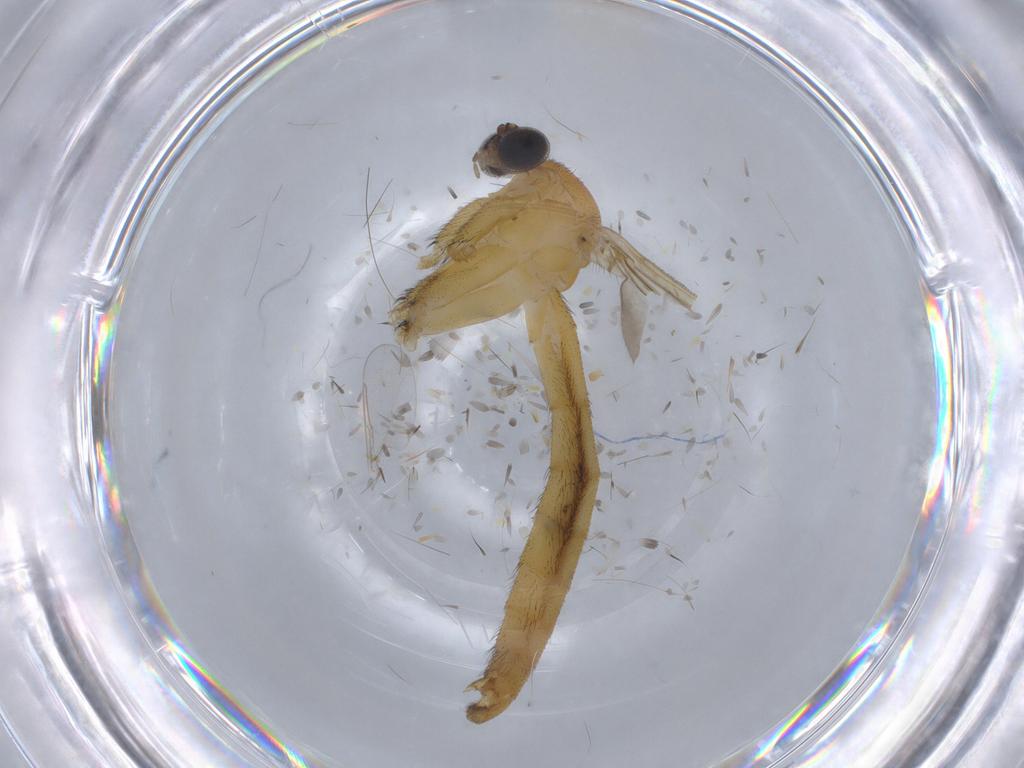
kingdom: Animalia
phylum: Arthropoda
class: Insecta
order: Diptera
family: Psychodidae
